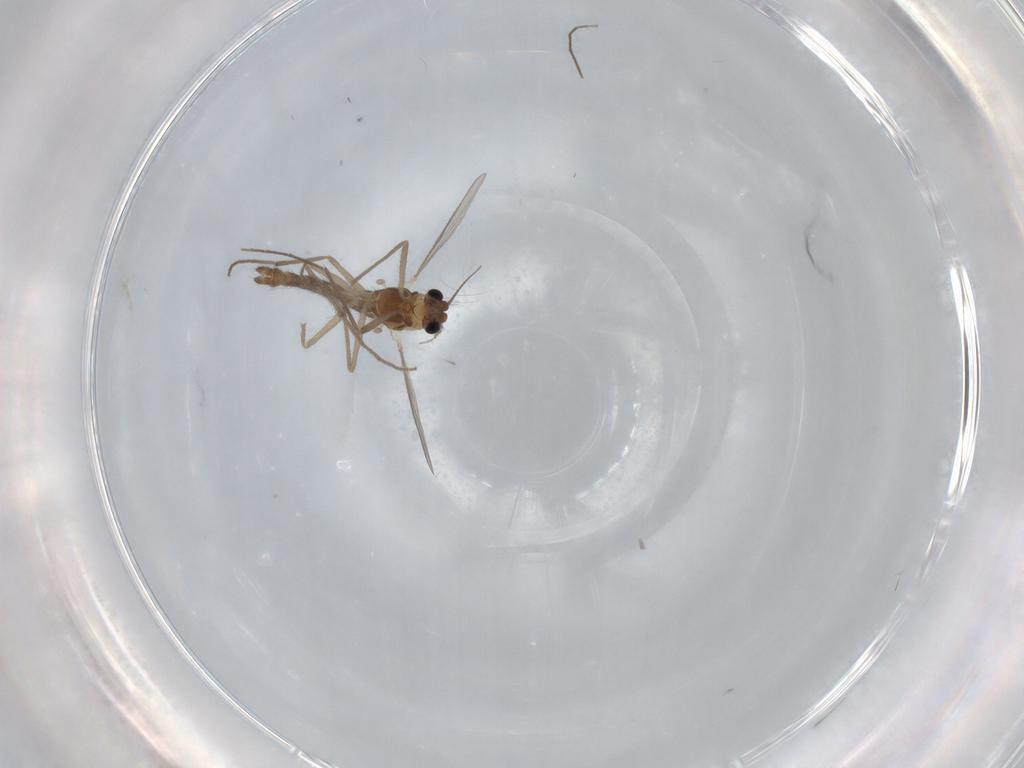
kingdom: Animalia
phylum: Arthropoda
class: Insecta
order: Diptera
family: Chironomidae
